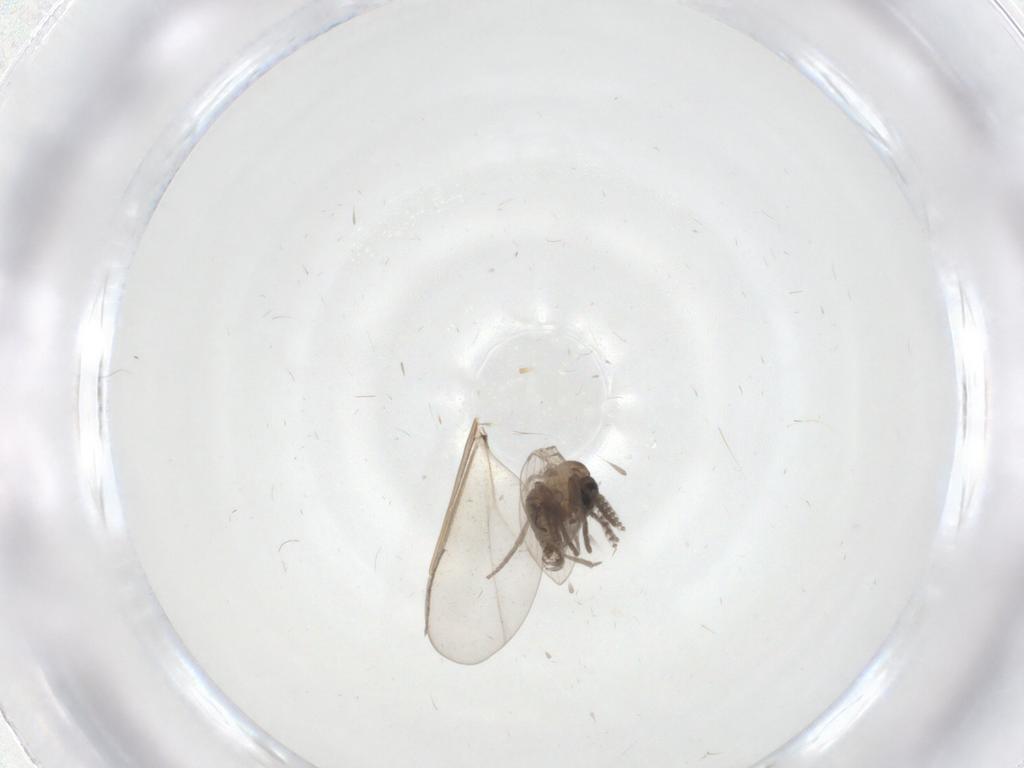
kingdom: Animalia
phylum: Arthropoda
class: Insecta
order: Diptera
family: Psychodidae
